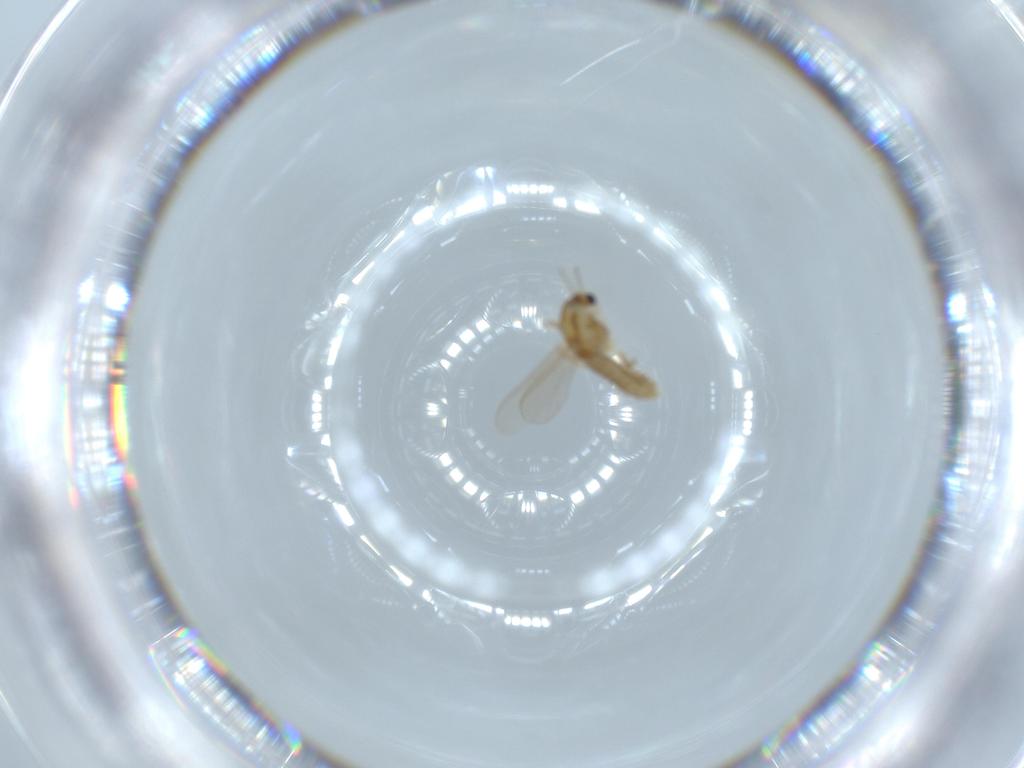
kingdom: Animalia
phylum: Arthropoda
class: Insecta
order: Diptera
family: Chironomidae
